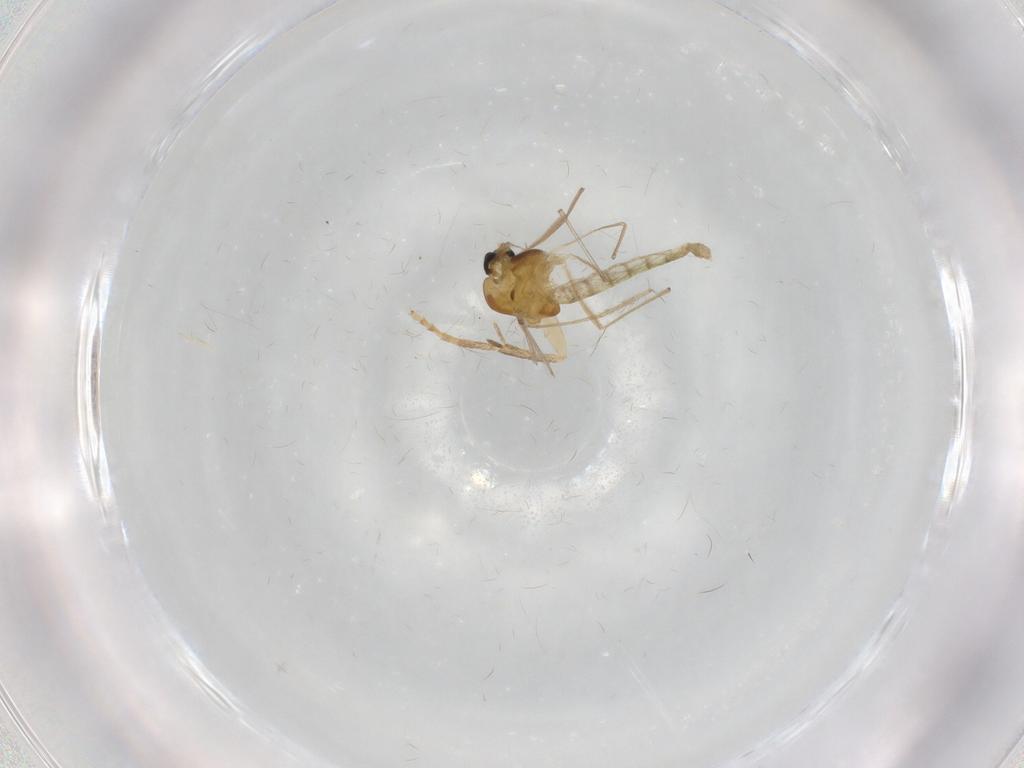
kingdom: Animalia
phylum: Arthropoda
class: Insecta
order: Diptera
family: Chironomidae
